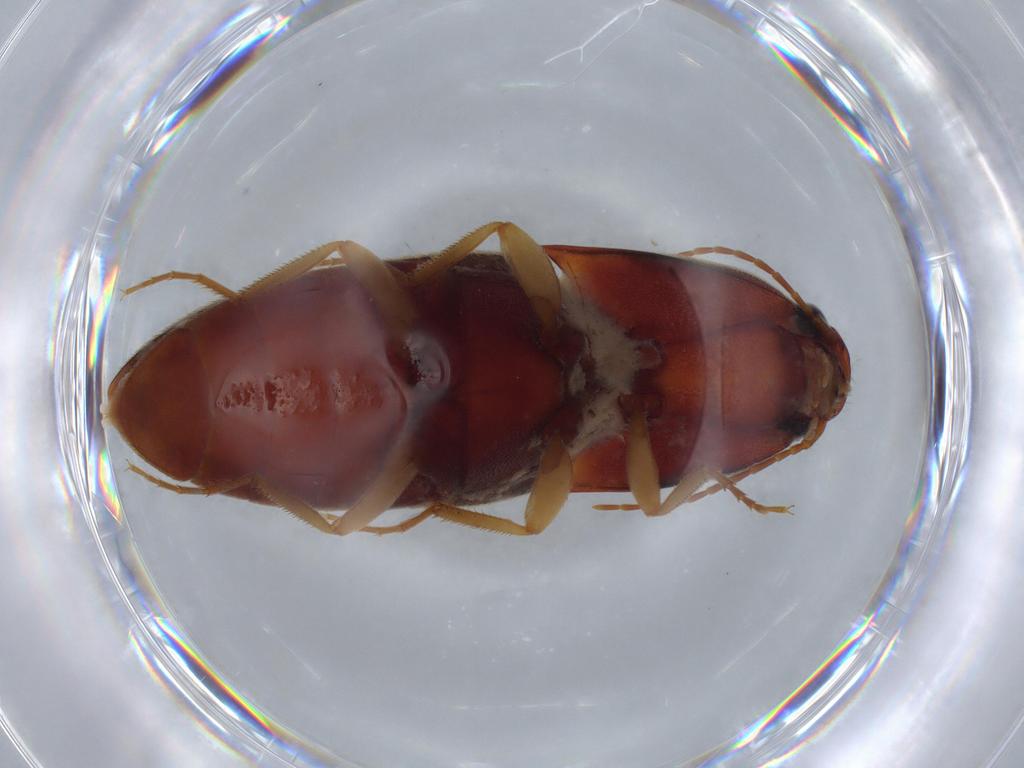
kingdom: Animalia
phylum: Arthropoda
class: Insecta
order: Coleoptera
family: Elateridae
